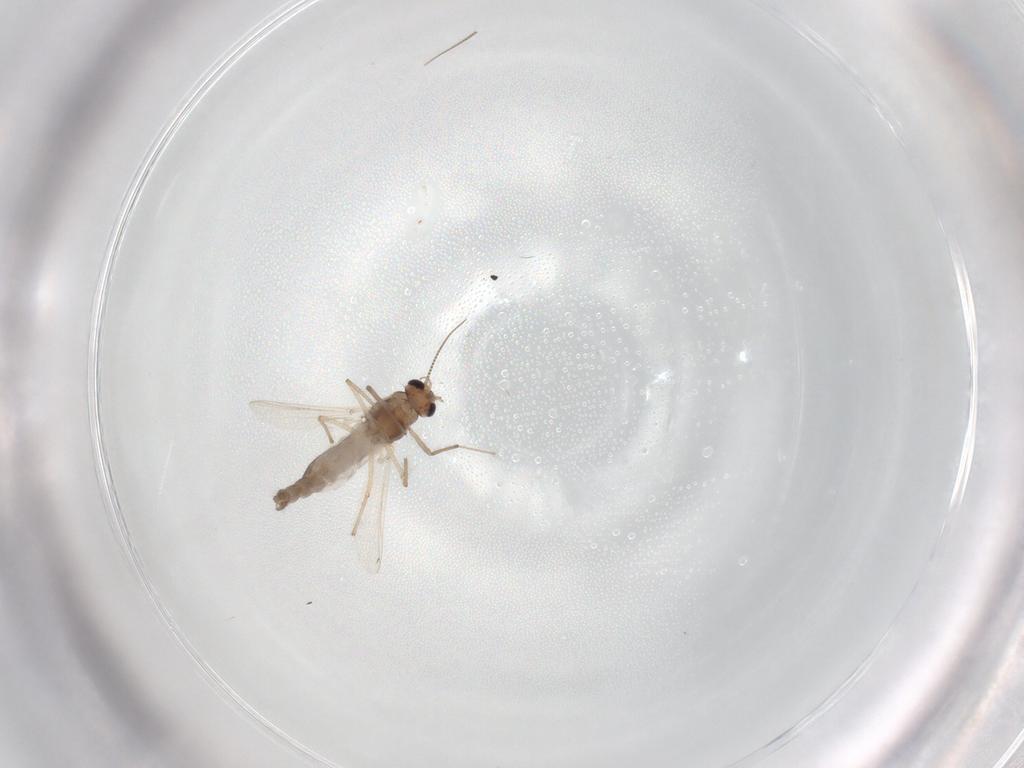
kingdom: Animalia
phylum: Arthropoda
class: Insecta
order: Diptera
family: Chironomidae
